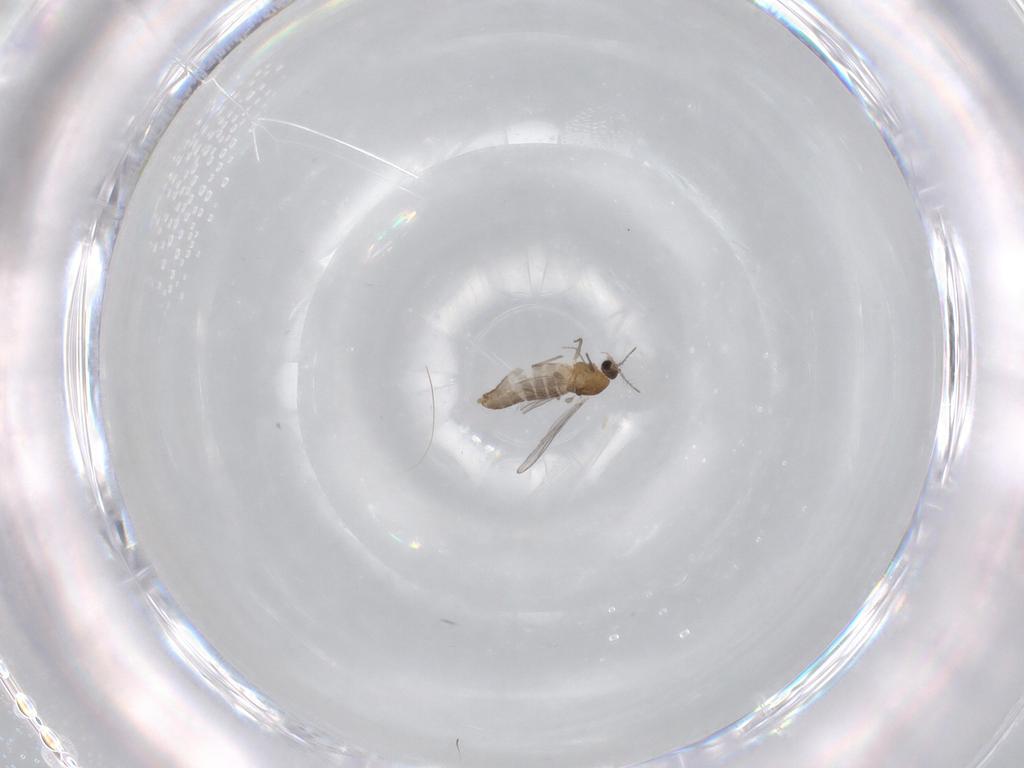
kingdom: Animalia
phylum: Arthropoda
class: Insecta
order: Diptera
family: Chironomidae
